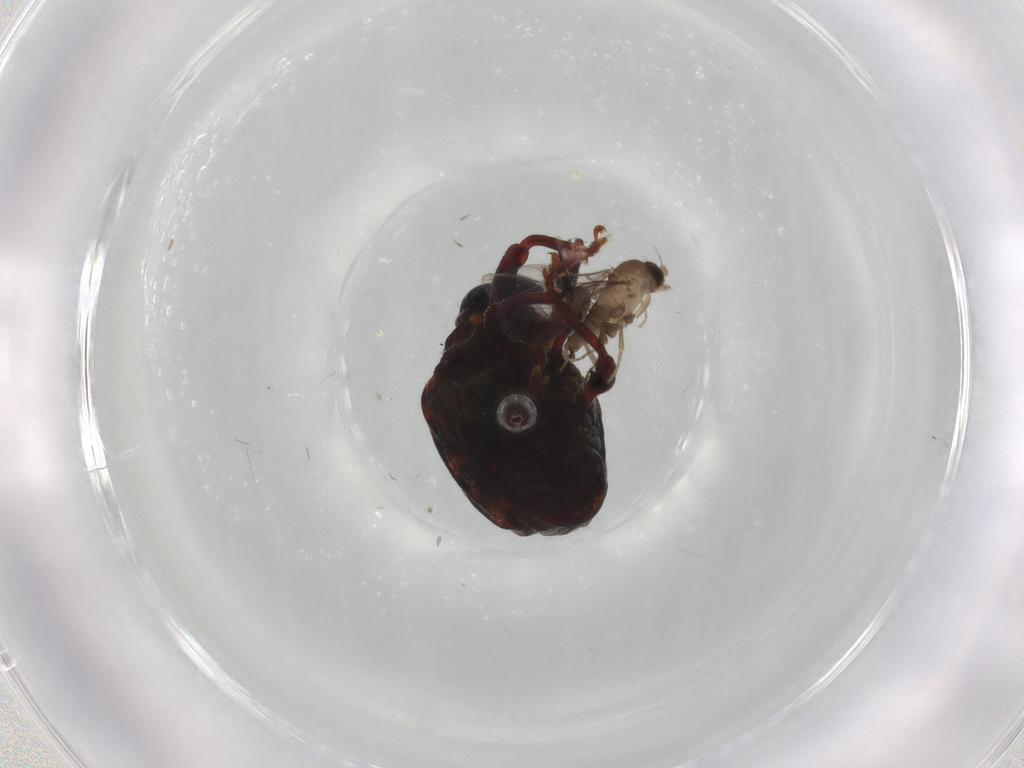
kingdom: Animalia
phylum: Arthropoda
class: Insecta
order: Coleoptera
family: Curculionidae
